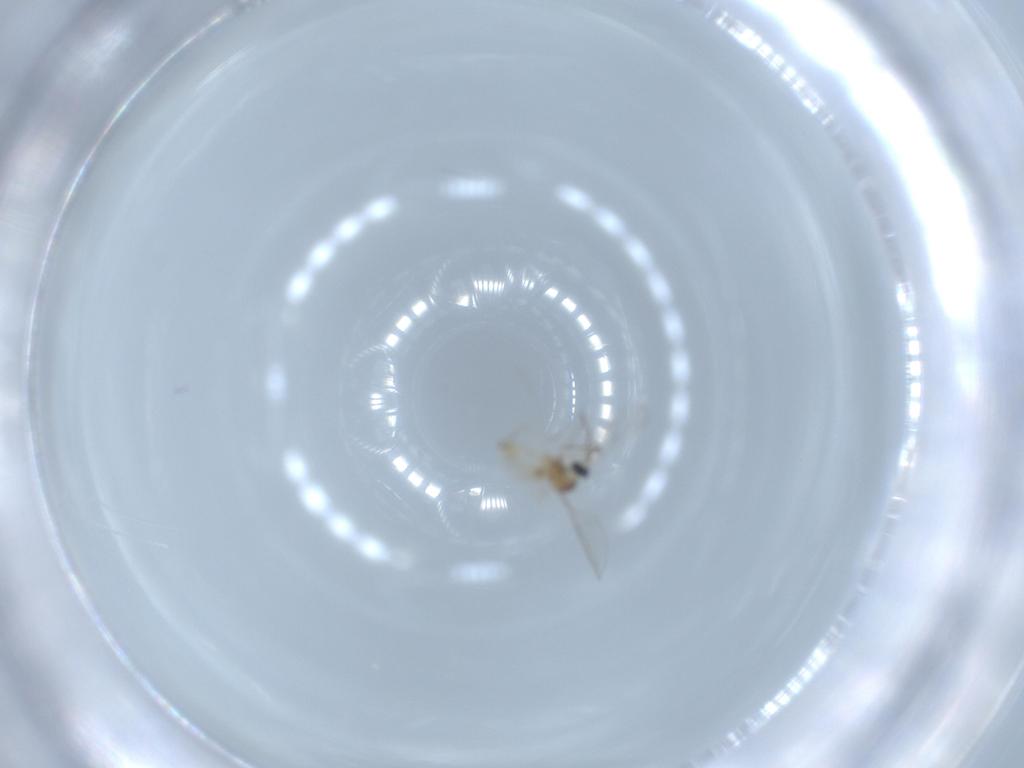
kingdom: Animalia
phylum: Arthropoda
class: Insecta
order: Diptera
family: Cecidomyiidae
